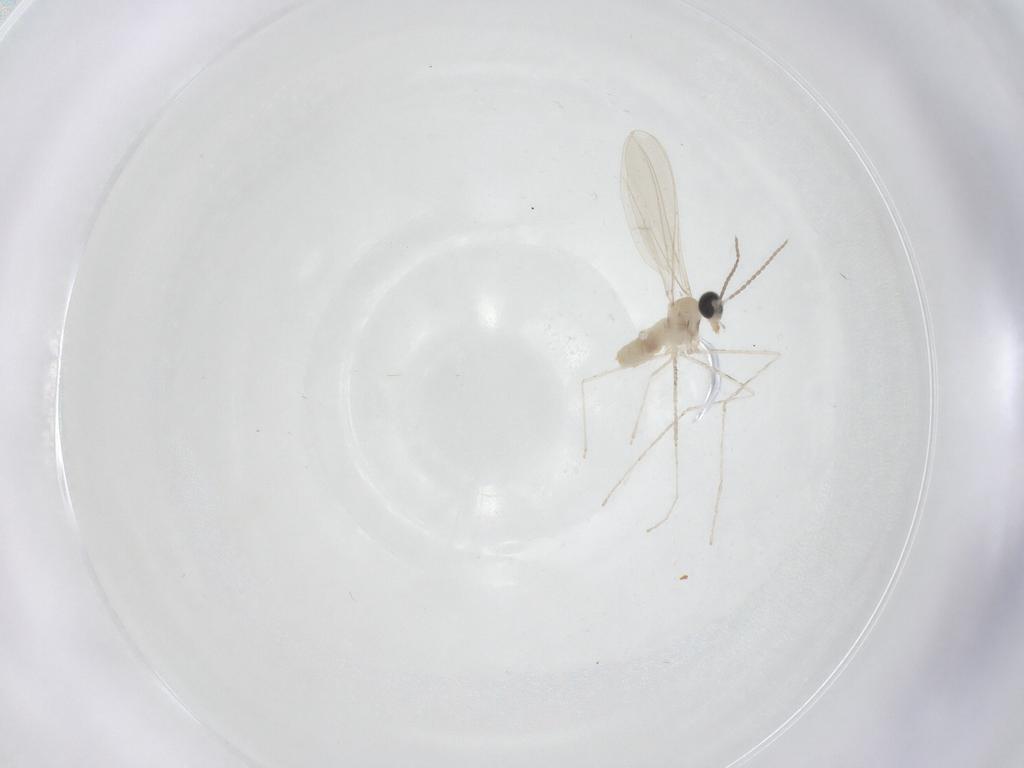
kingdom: Animalia
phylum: Arthropoda
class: Insecta
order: Diptera
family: Cecidomyiidae
